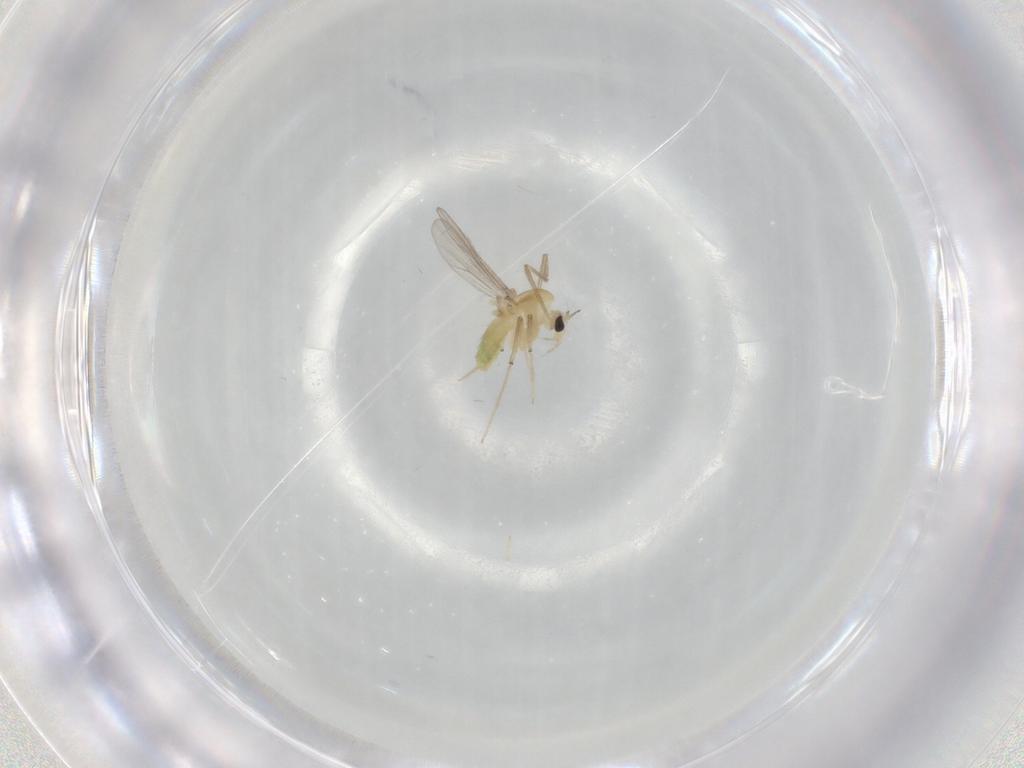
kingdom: Animalia
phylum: Arthropoda
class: Insecta
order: Diptera
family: Chironomidae
